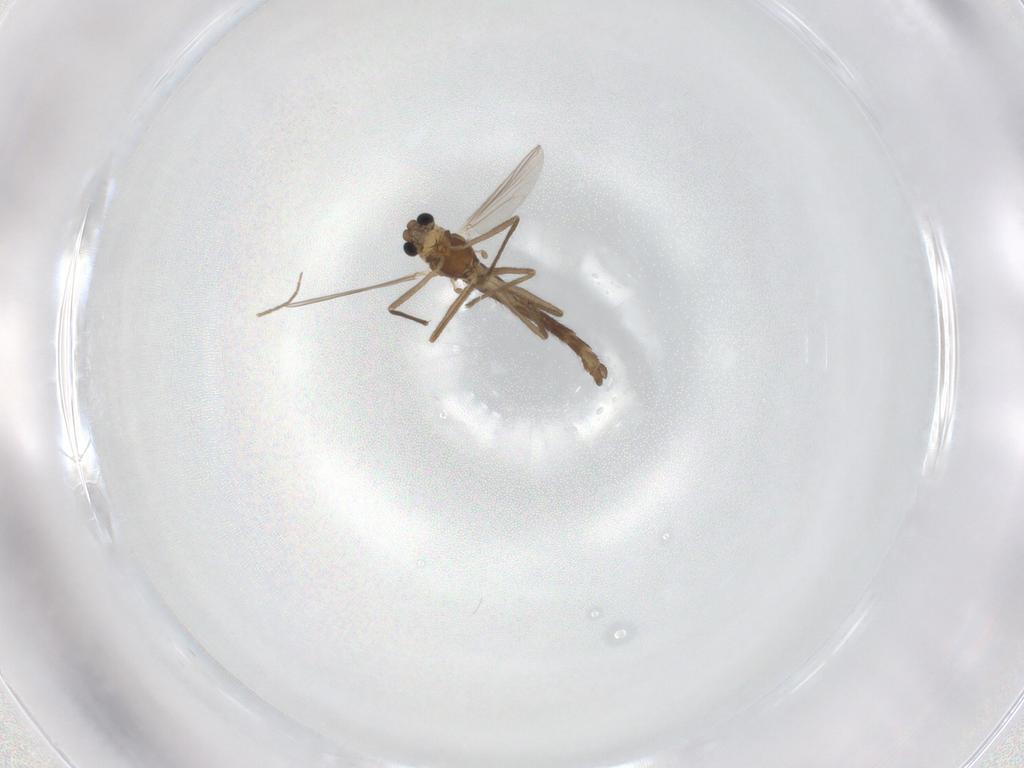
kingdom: Animalia
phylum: Arthropoda
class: Insecta
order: Diptera
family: Chironomidae
